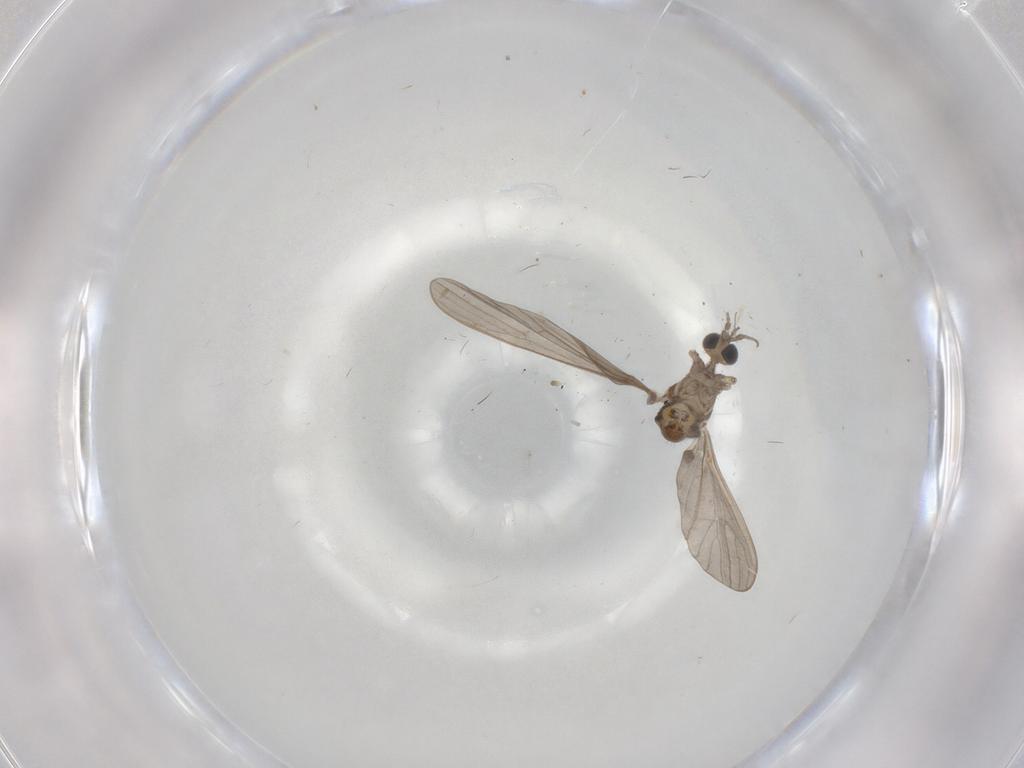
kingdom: Animalia
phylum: Arthropoda
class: Insecta
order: Diptera
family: Limoniidae
